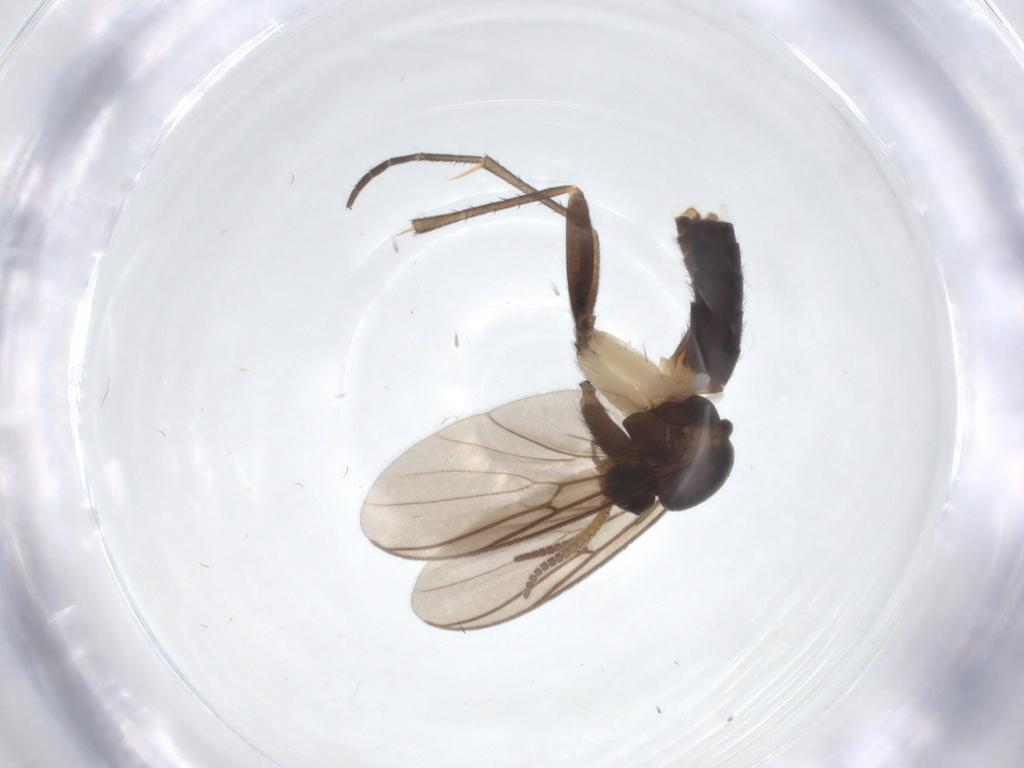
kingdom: Animalia
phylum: Arthropoda
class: Insecta
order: Diptera
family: Mycetophilidae
